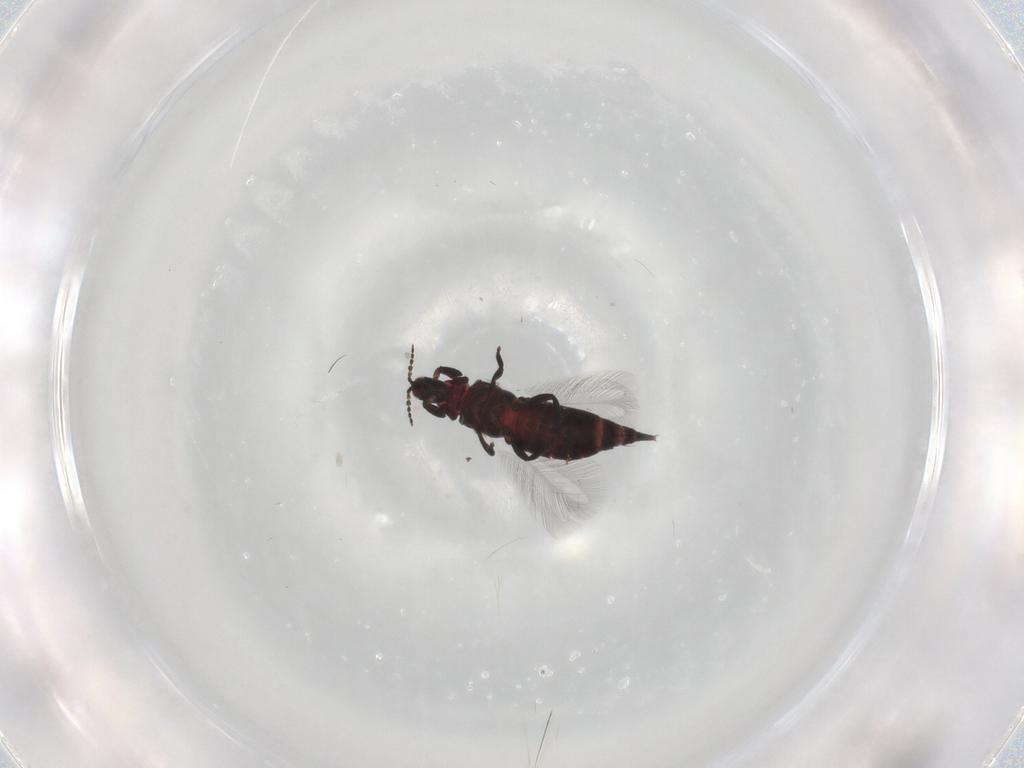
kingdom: Animalia
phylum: Arthropoda
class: Insecta
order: Thysanoptera
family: Phlaeothripidae
